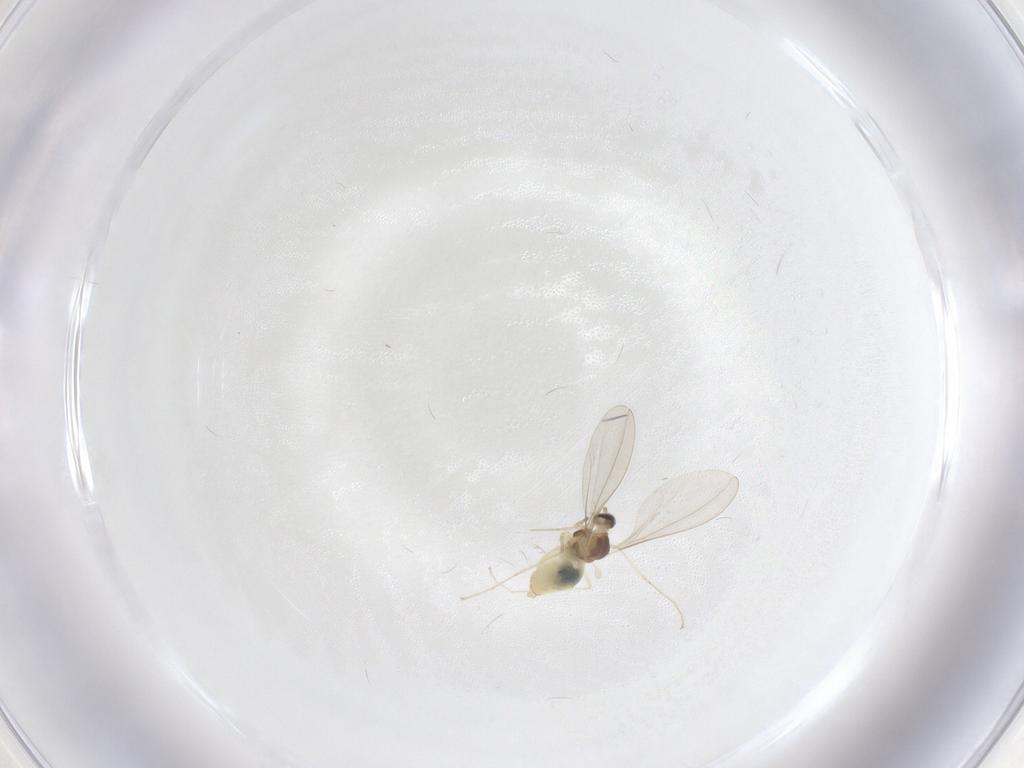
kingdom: Animalia
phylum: Arthropoda
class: Insecta
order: Diptera
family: Cecidomyiidae
